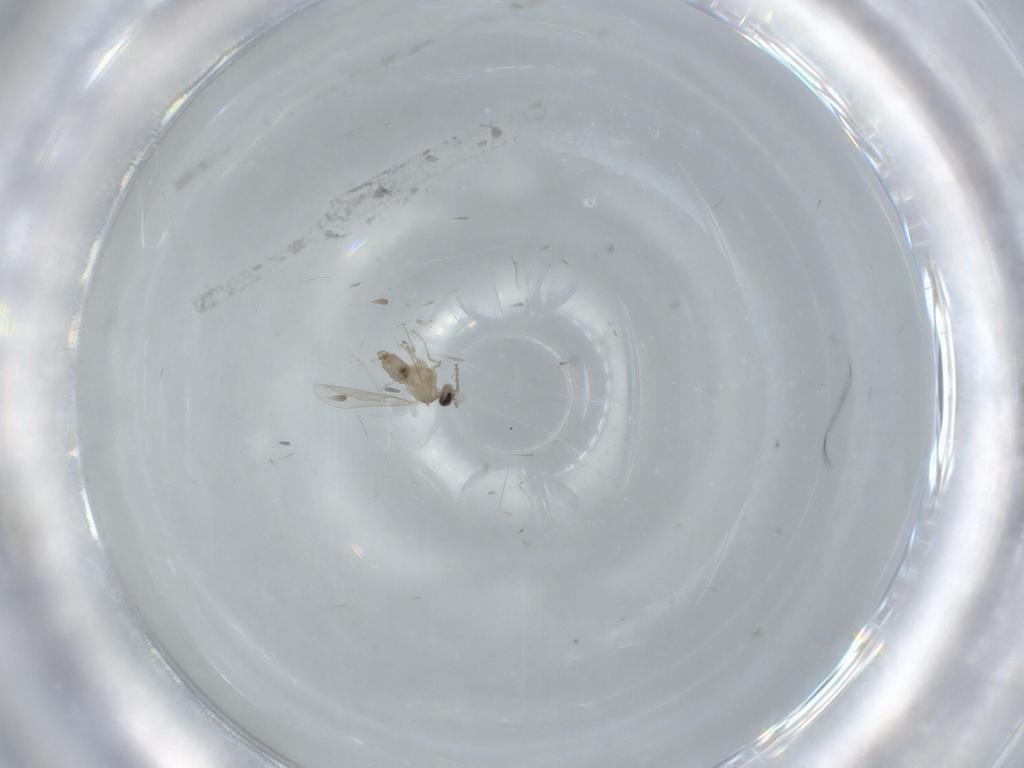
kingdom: Animalia
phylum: Arthropoda
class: Insecta
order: Diptera
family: Cecidomyiidae
